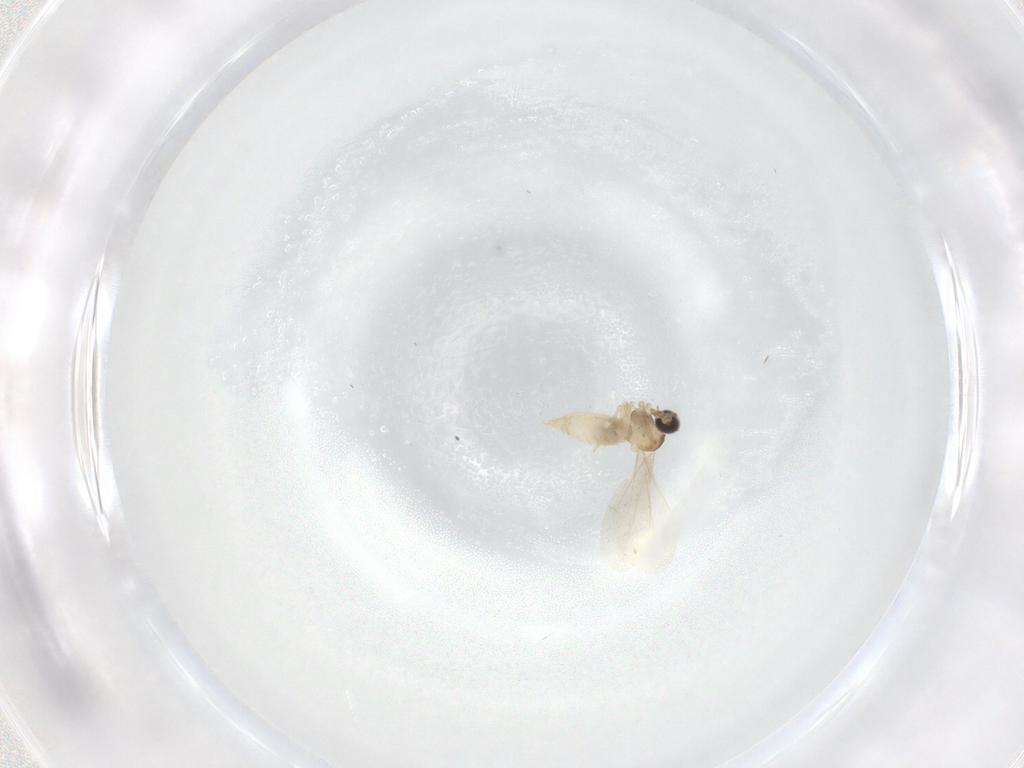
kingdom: Animalia
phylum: Arthropoda
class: Insecta
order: Diptera
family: Cecidomyiidae
